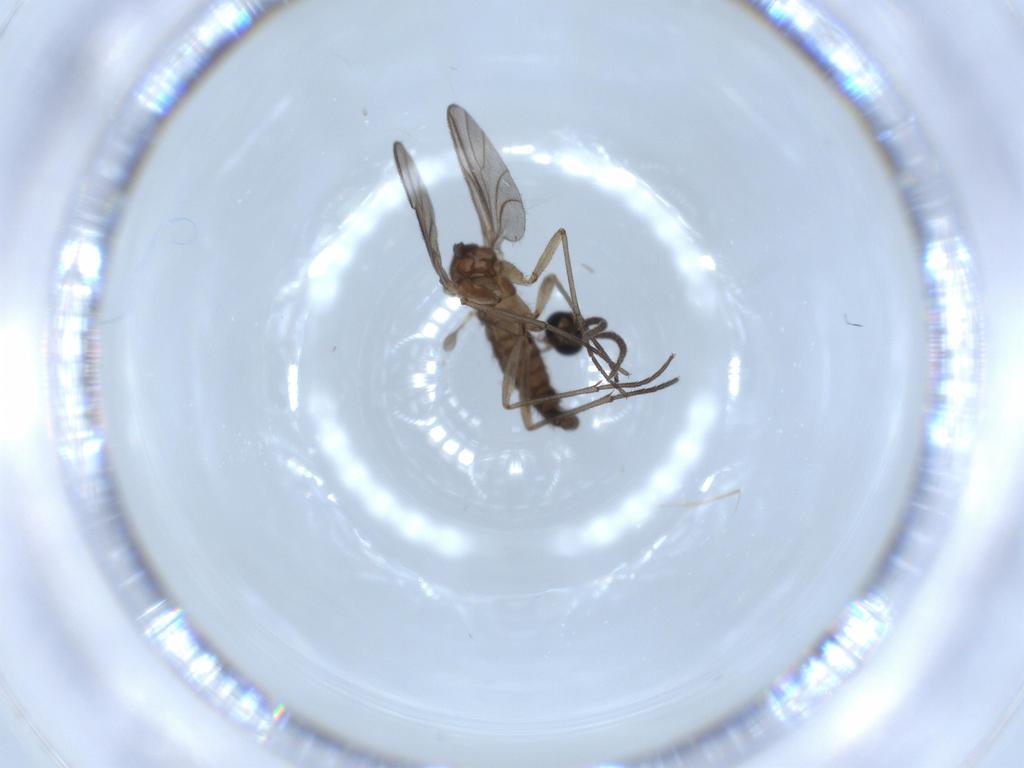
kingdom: Animalia
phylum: Arthropoda
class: Insecta
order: Diptera
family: Sciaridae
